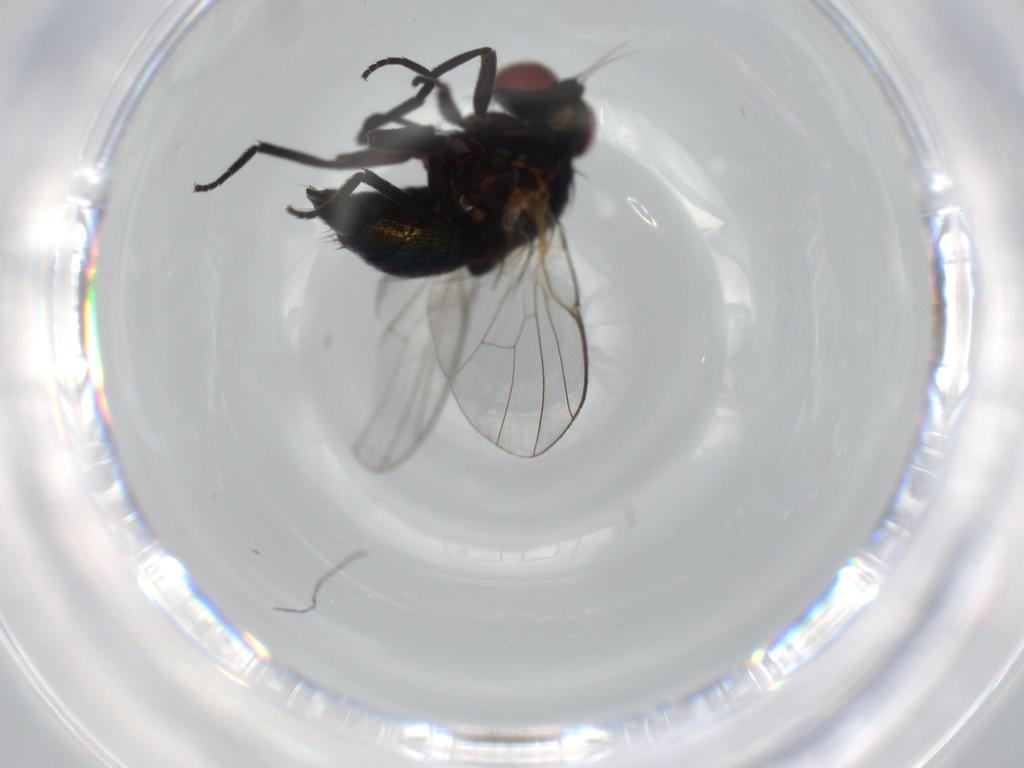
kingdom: Animalia
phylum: Arthropoda
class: Insecta
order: Diptera
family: Agromyzidae
